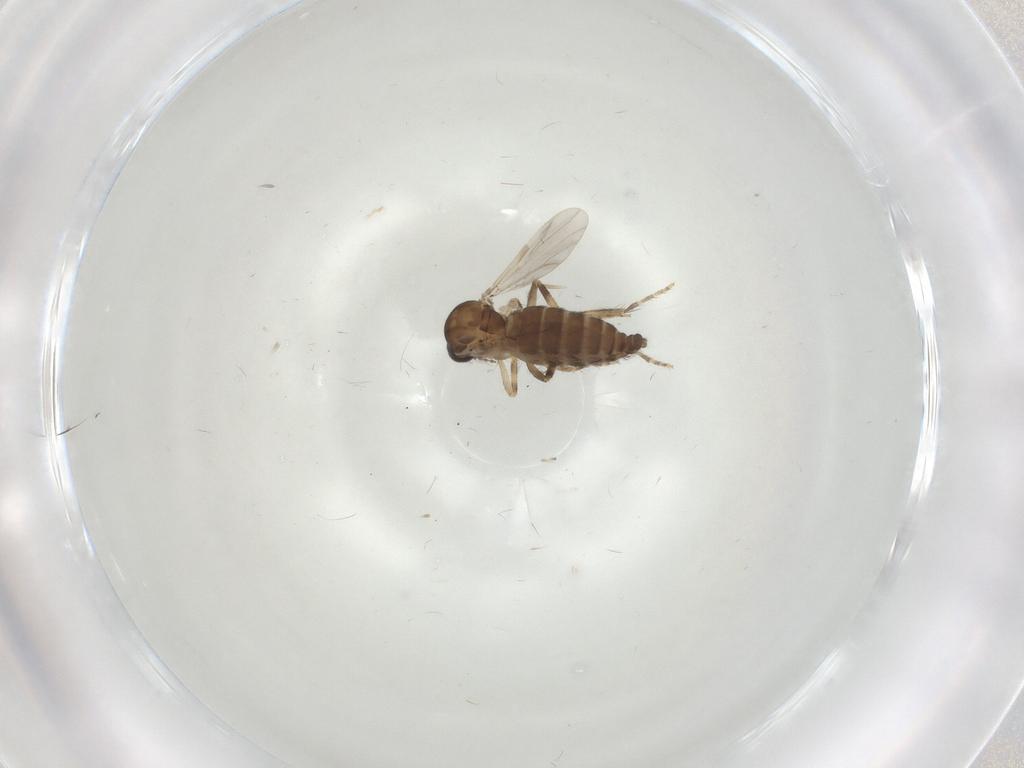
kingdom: Animalia
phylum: Arthropoda
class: Insecta
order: Diptera
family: Ceratopogonidae
